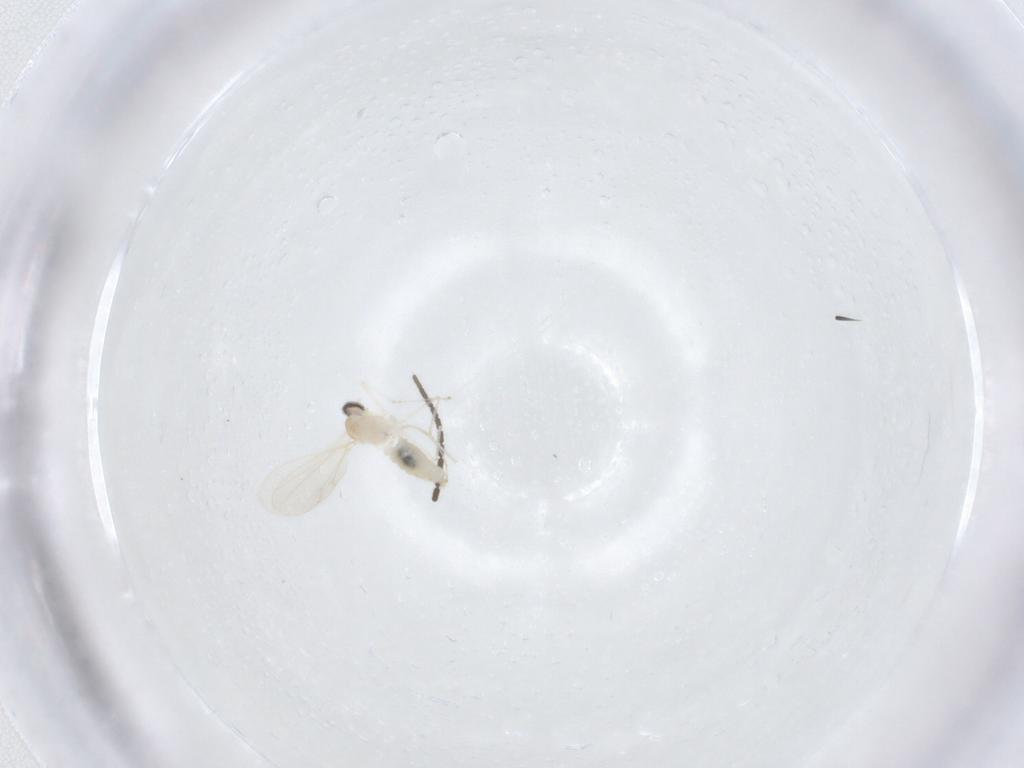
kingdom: Animalia
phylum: Arthropoda
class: Insecta
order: Diptera
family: Cecidomyiidae
